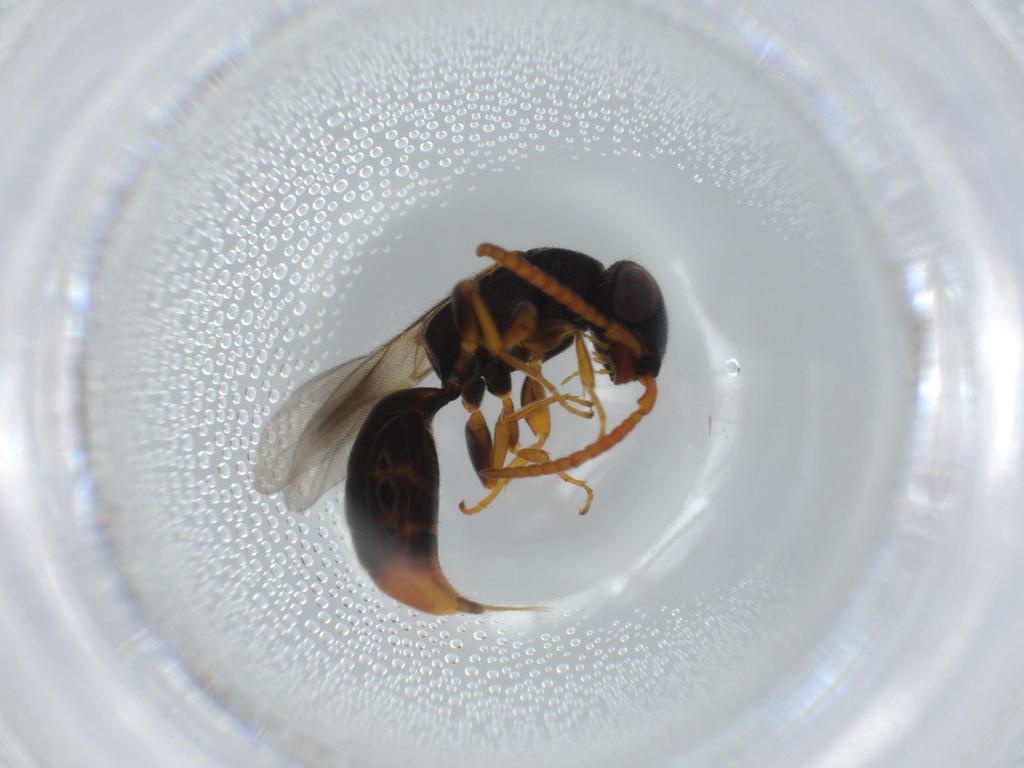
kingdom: Animalia
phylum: Arthropoda
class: Insecta
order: Hymenoptera
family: Bethylidae
